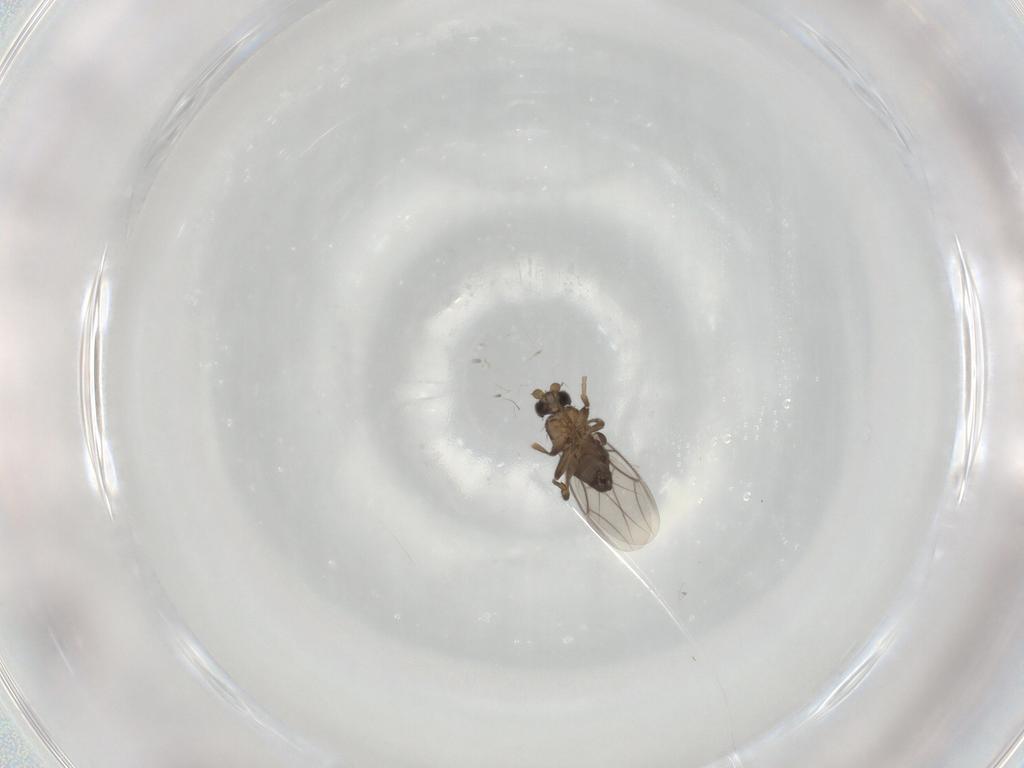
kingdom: Animalia
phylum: Arthropoda
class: Insecta
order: Diptera
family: Phoridae
